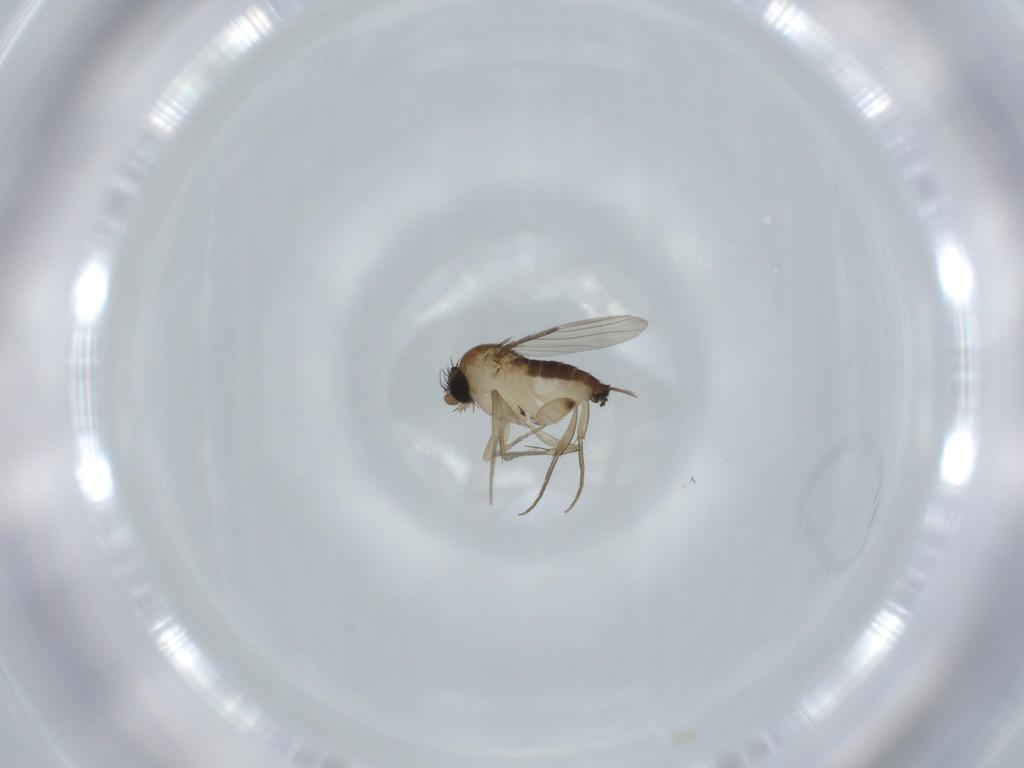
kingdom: Animalia
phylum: Arthropoda
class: Insecta
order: Diptera
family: Phoridae
